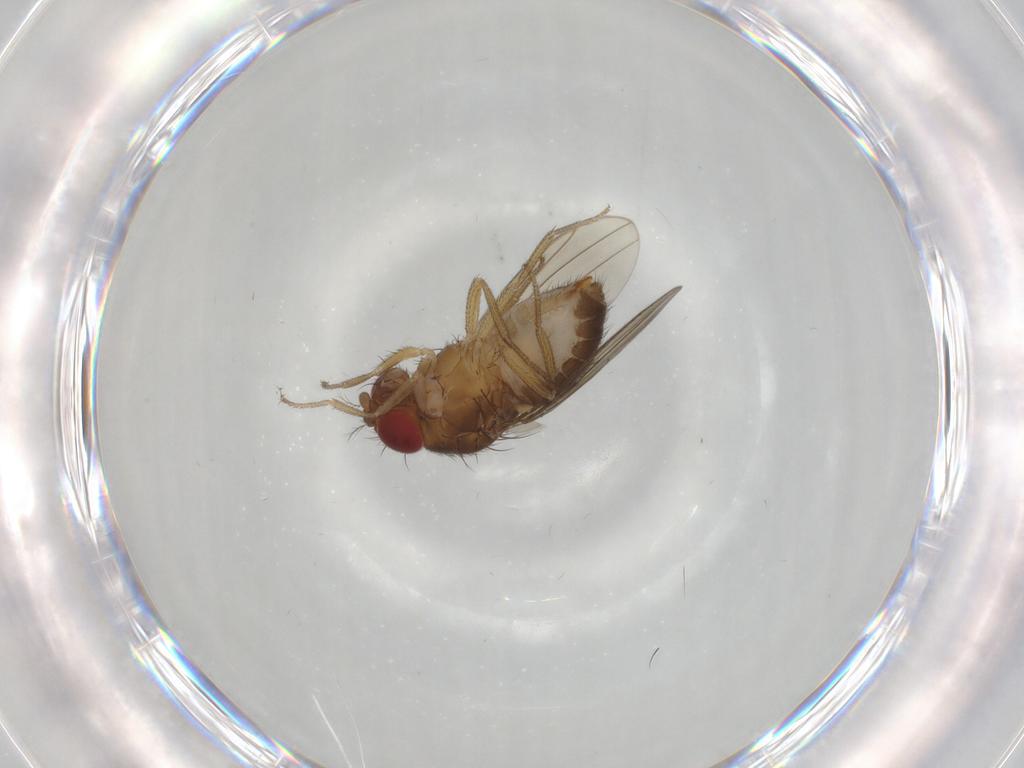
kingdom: Animalia
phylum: Arthropoda
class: Insecta
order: Diptera
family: Drosophilidae
